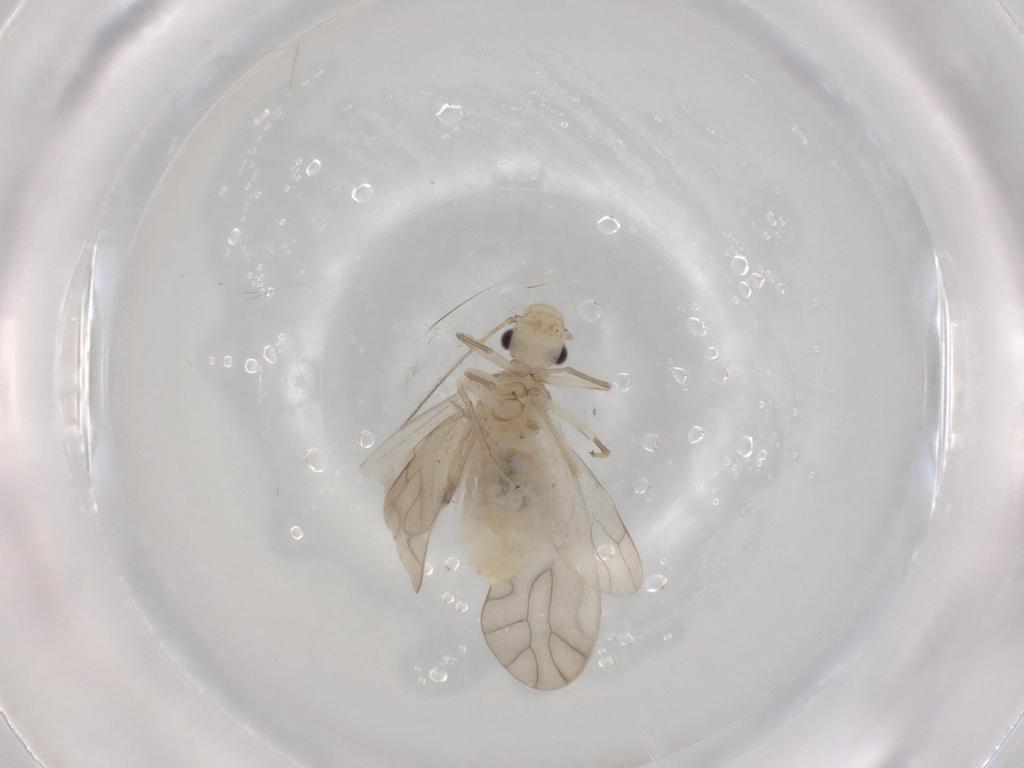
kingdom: Animalia
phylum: Arthropoda
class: Insecta
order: Psocodea
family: Caeciliusidae
